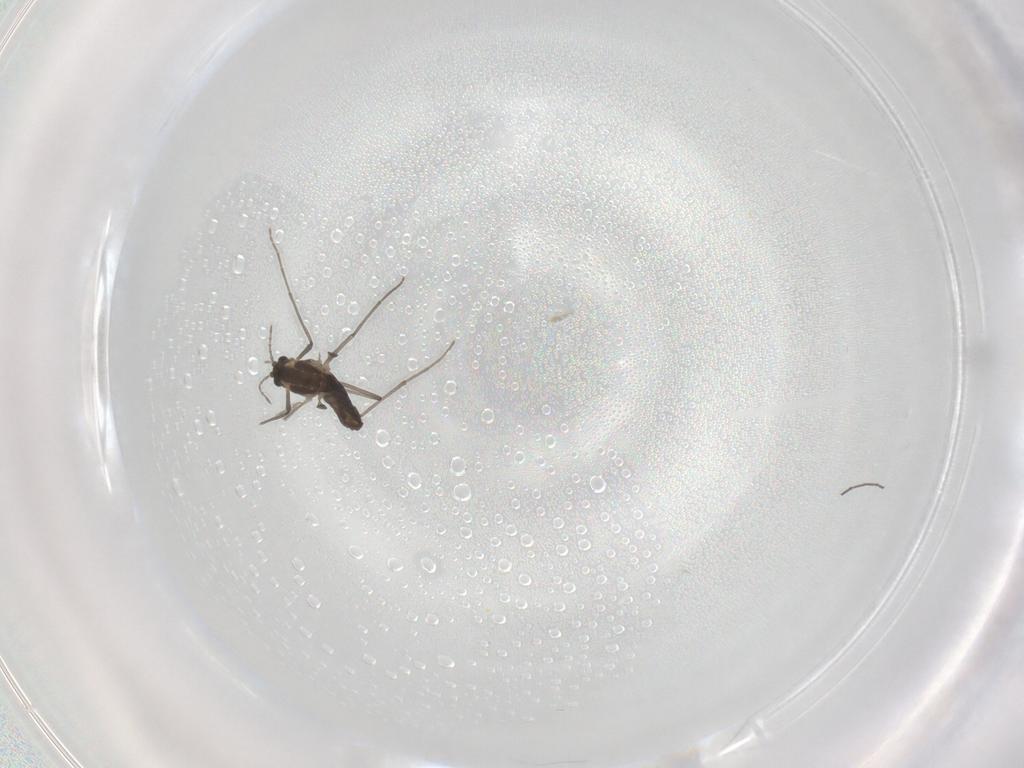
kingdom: Animalia
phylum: Arthropoda
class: Insecta
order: Diptera
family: Chironomidae
